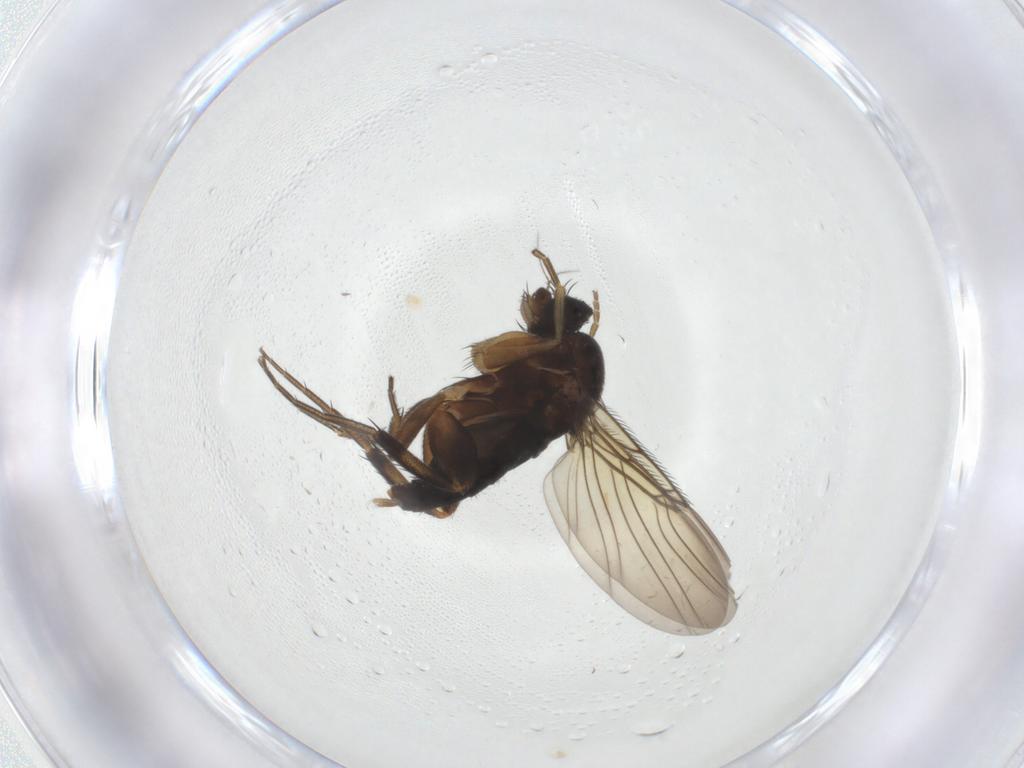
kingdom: Animalia
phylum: Arthropoda
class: Insecta
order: Diptera
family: Phoridae
